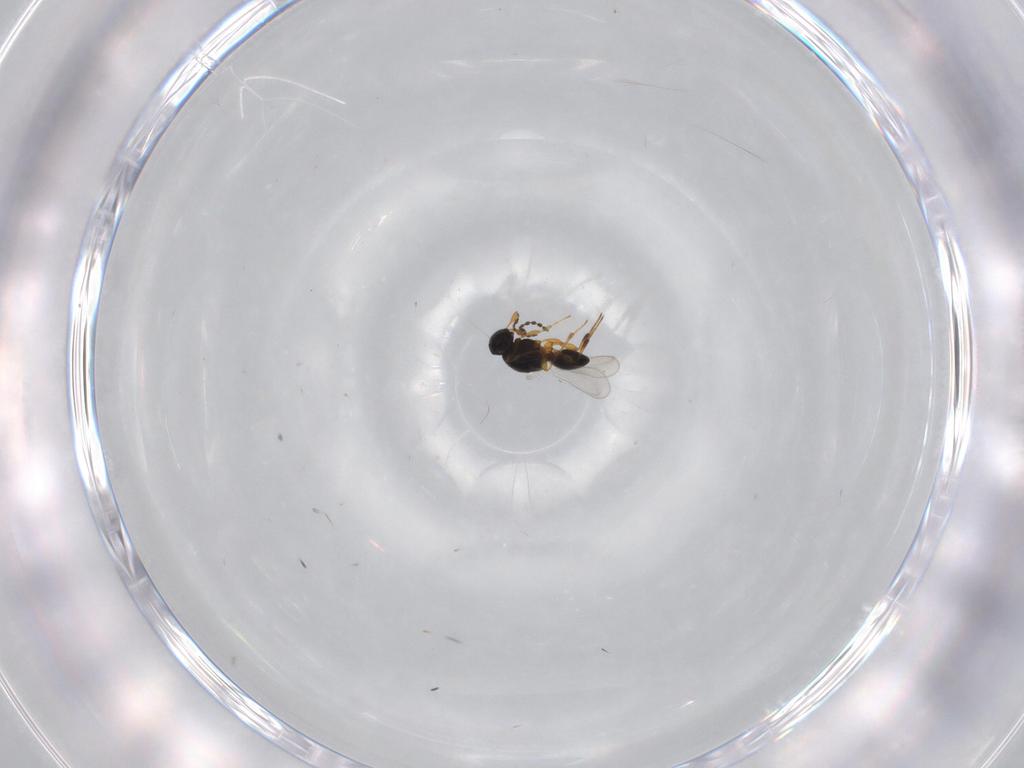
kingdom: Animalia
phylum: Arthropoda
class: Insecta
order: Hymenoptera
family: Platygastridae
